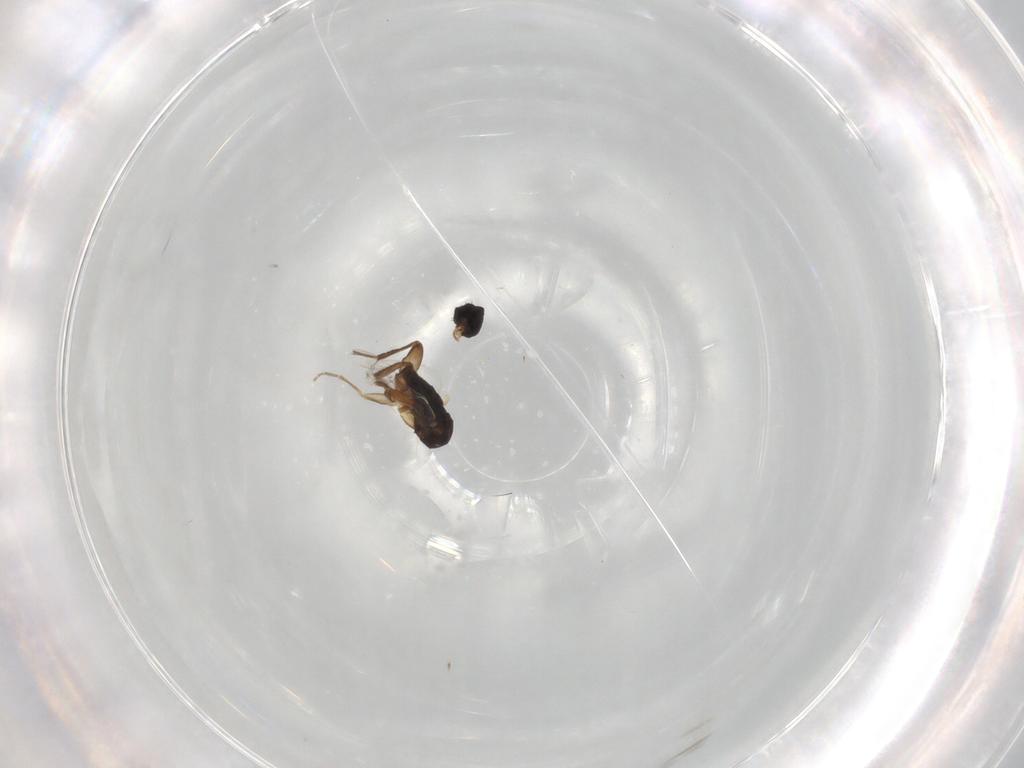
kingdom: Animalia
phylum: Arthropoda
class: Insecta
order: Diptera
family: Phoridae
